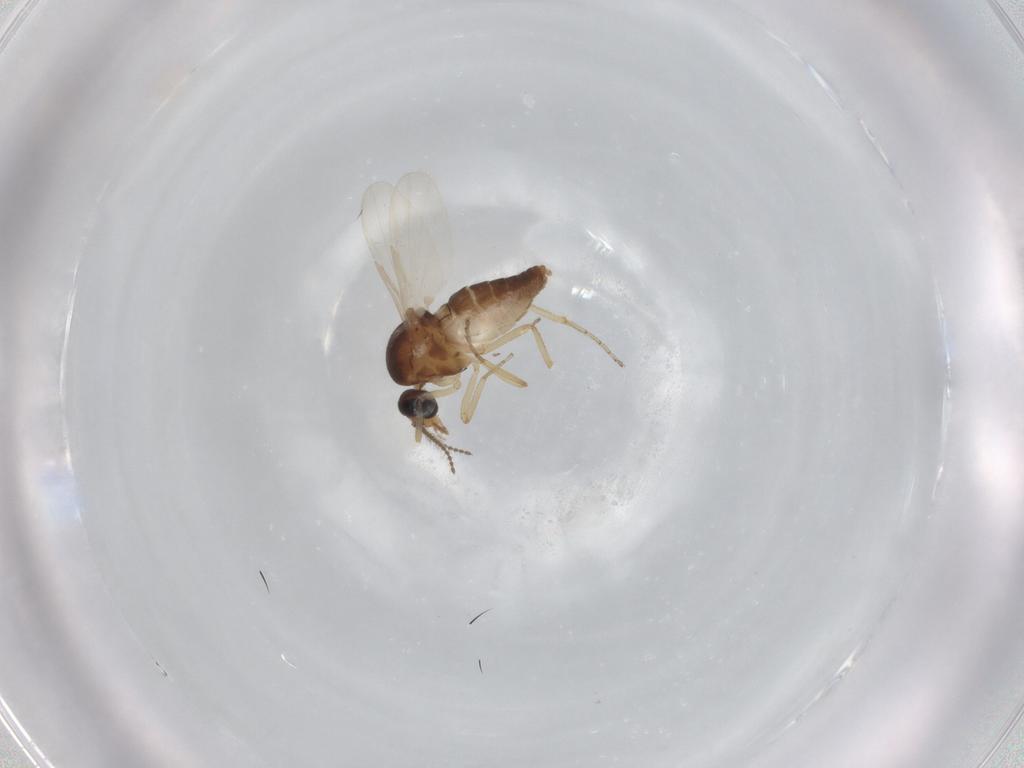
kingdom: Animalia
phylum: Arthropoda
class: Insecta
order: Diptera
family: Ceratopogonidae
